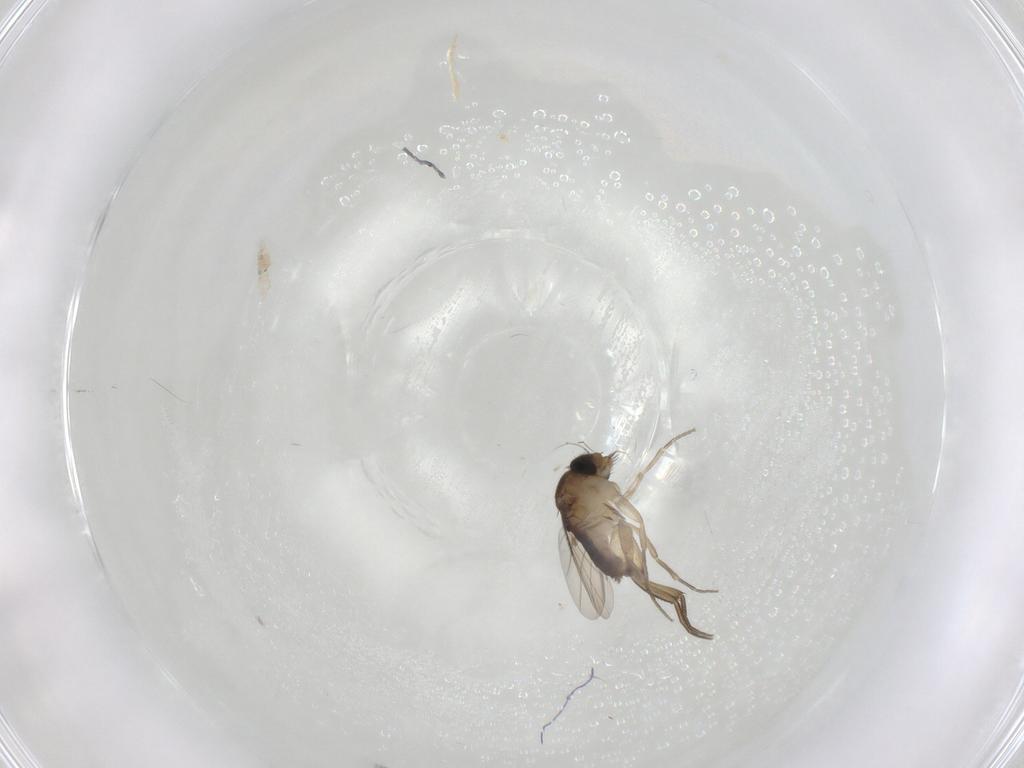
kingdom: Animalia
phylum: Arthropoda
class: Insecta
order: Diptera
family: Phoridae
